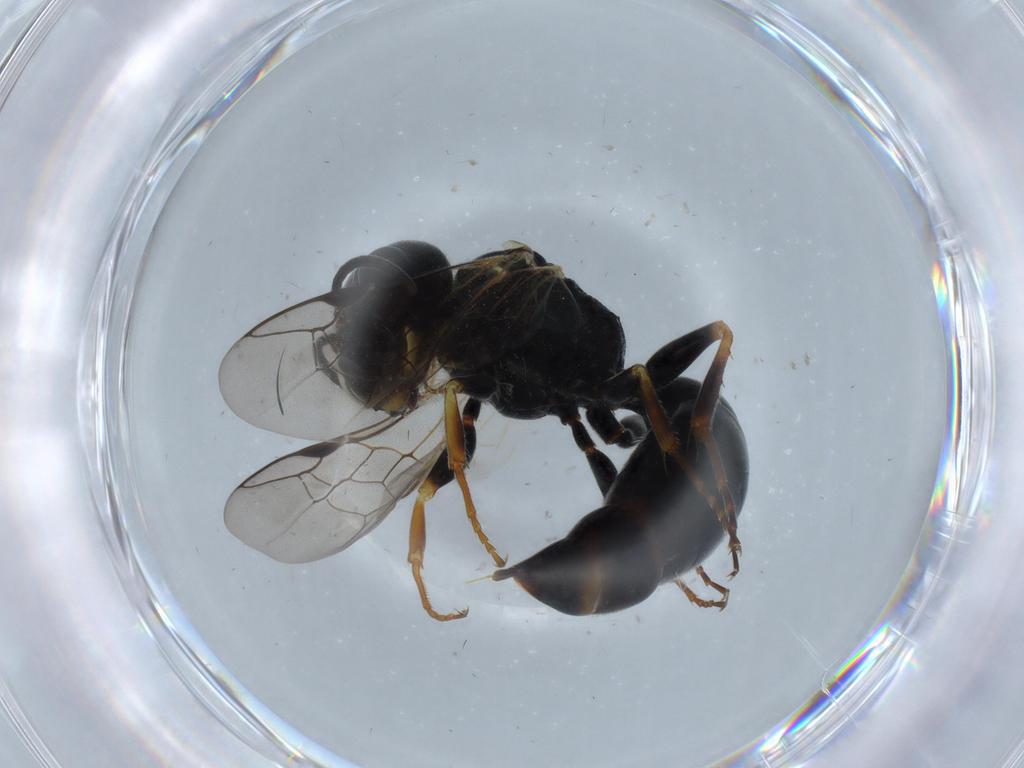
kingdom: Animalia
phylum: Arthropoda
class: Insecta
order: Hymenoptera
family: Crabronidae
